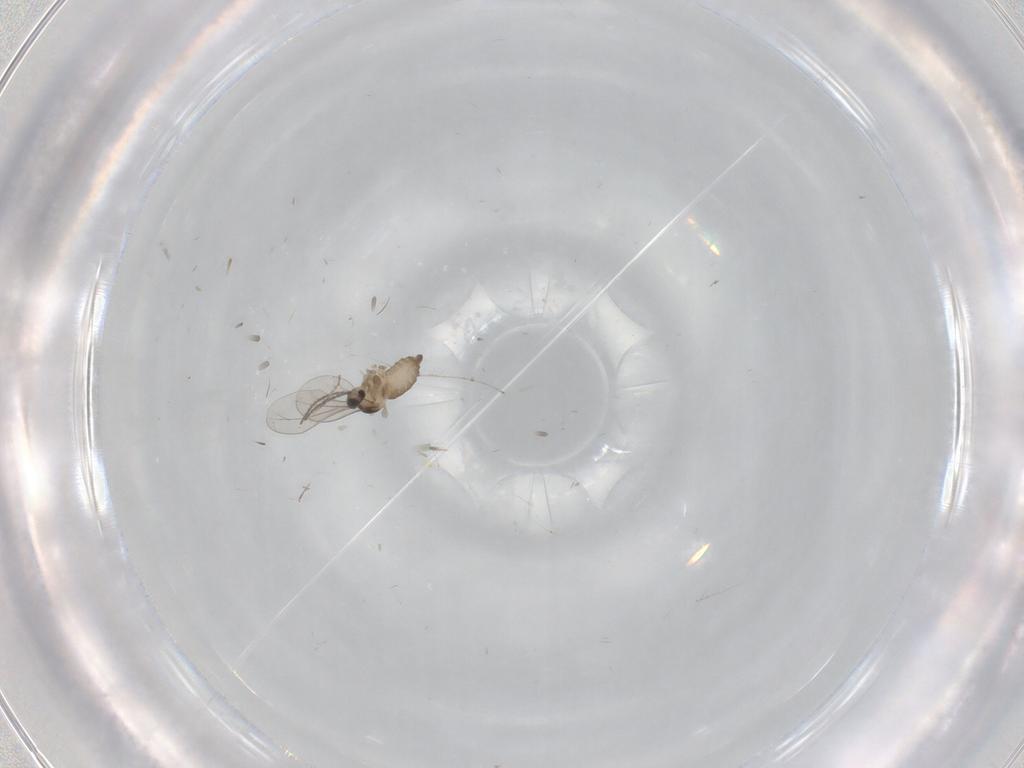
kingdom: Animalia
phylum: Arthropoda
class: Insecta
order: Diptera
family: Cecidomyiidae
